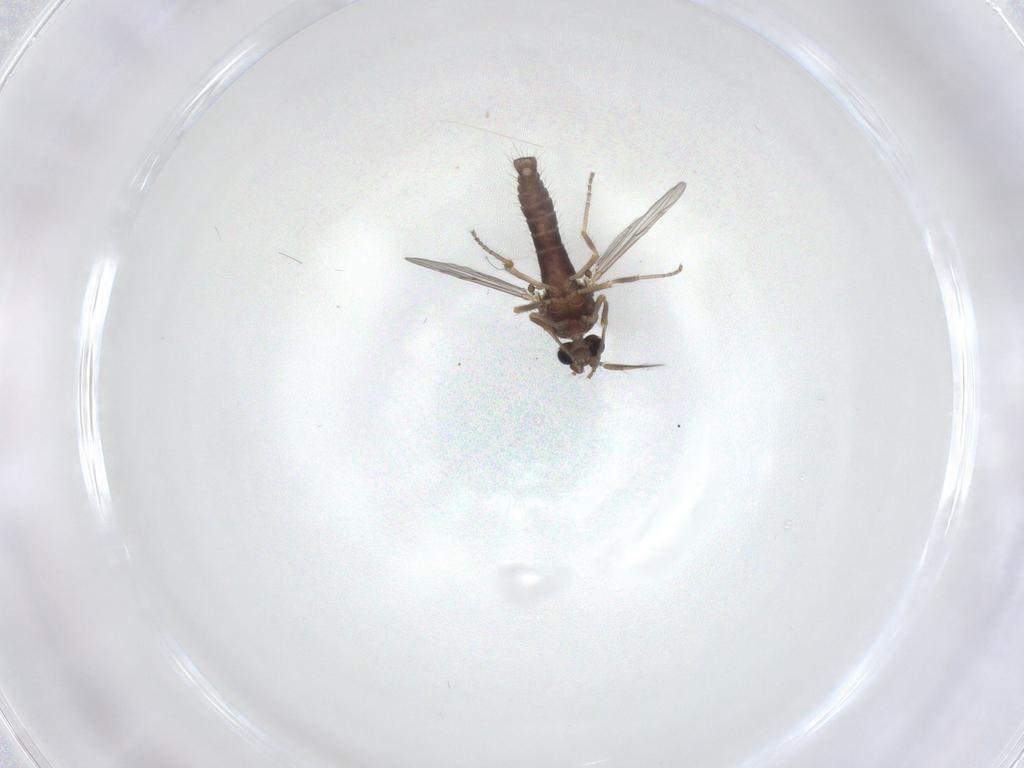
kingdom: Animalia
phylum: Arthropoda
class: Insecta
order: Diptera
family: Ceratopogonidae
